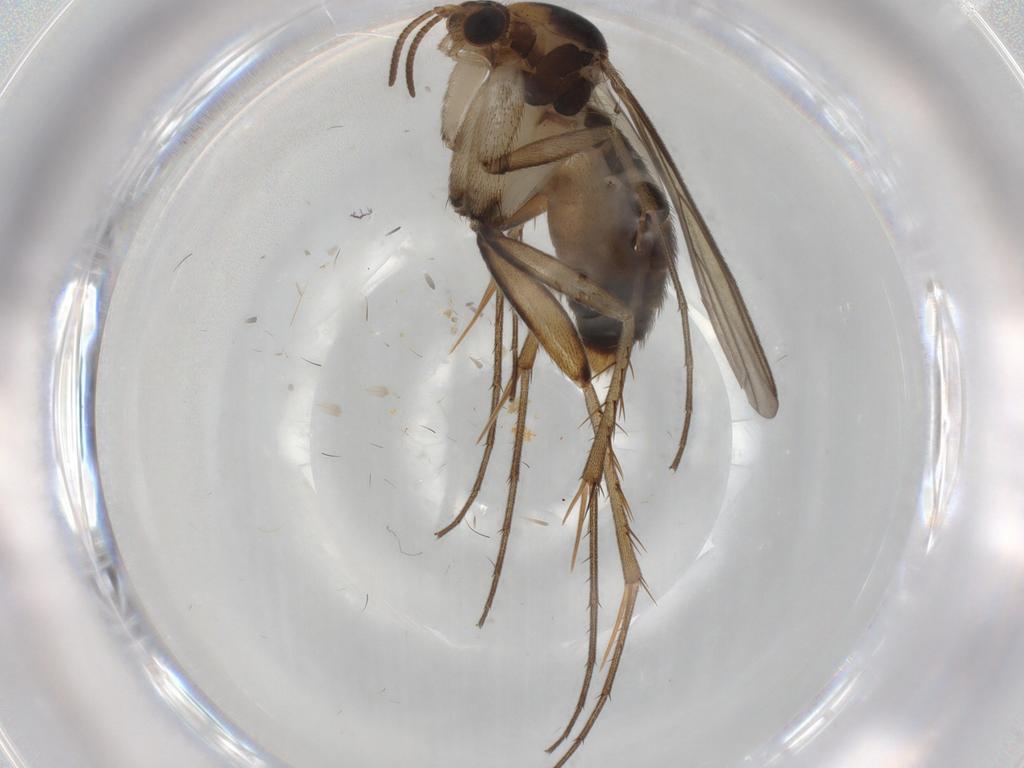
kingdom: Animalia
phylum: Arthropoda
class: Insecta
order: Diptera
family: Mycetophilidae
